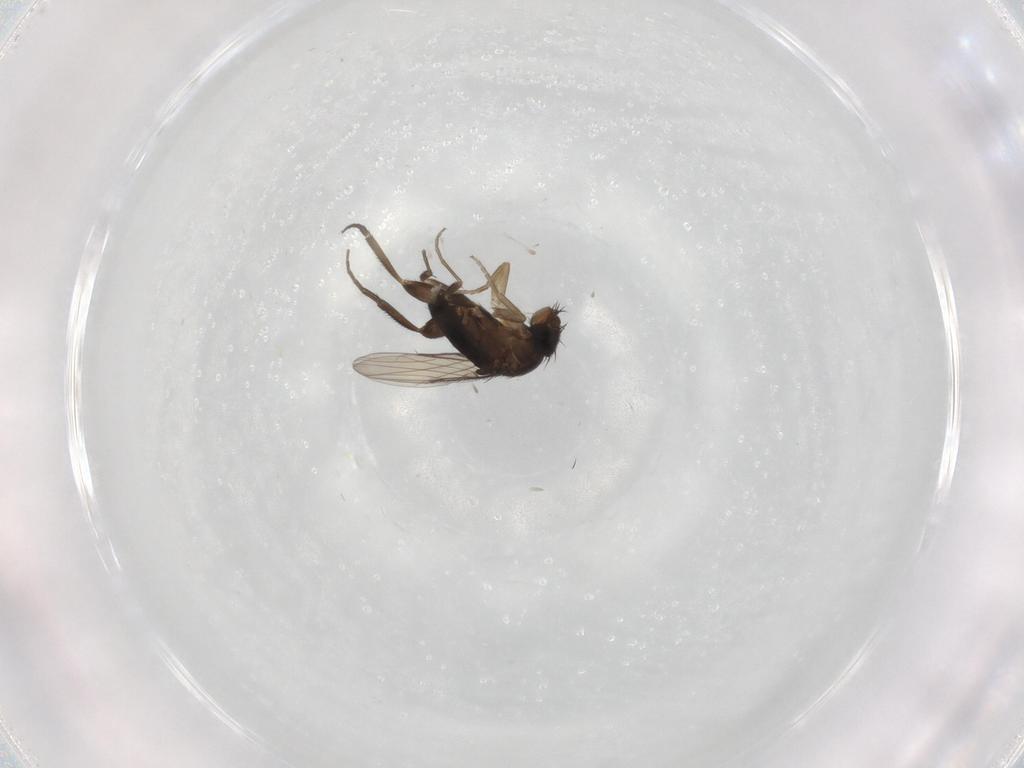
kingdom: Animalia
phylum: Arthropoda
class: Insecta
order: Diptera
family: Phoridae
